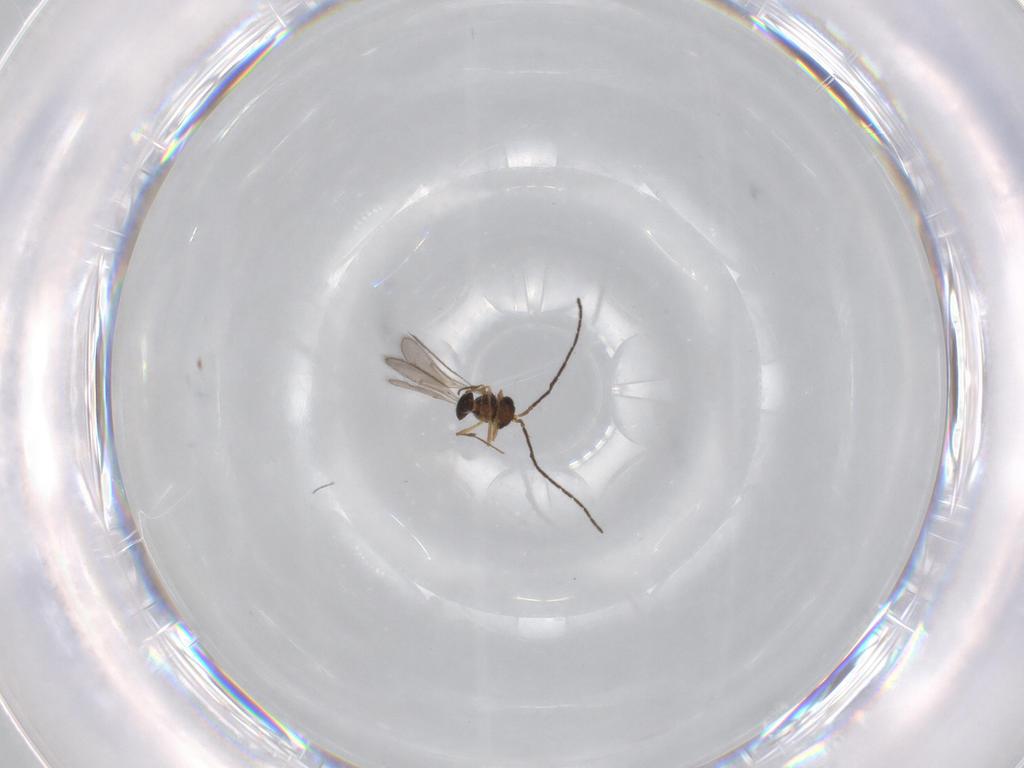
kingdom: Animalia
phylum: Arthropoda
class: Insecta
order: Hymenoptera
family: Scelionidae
